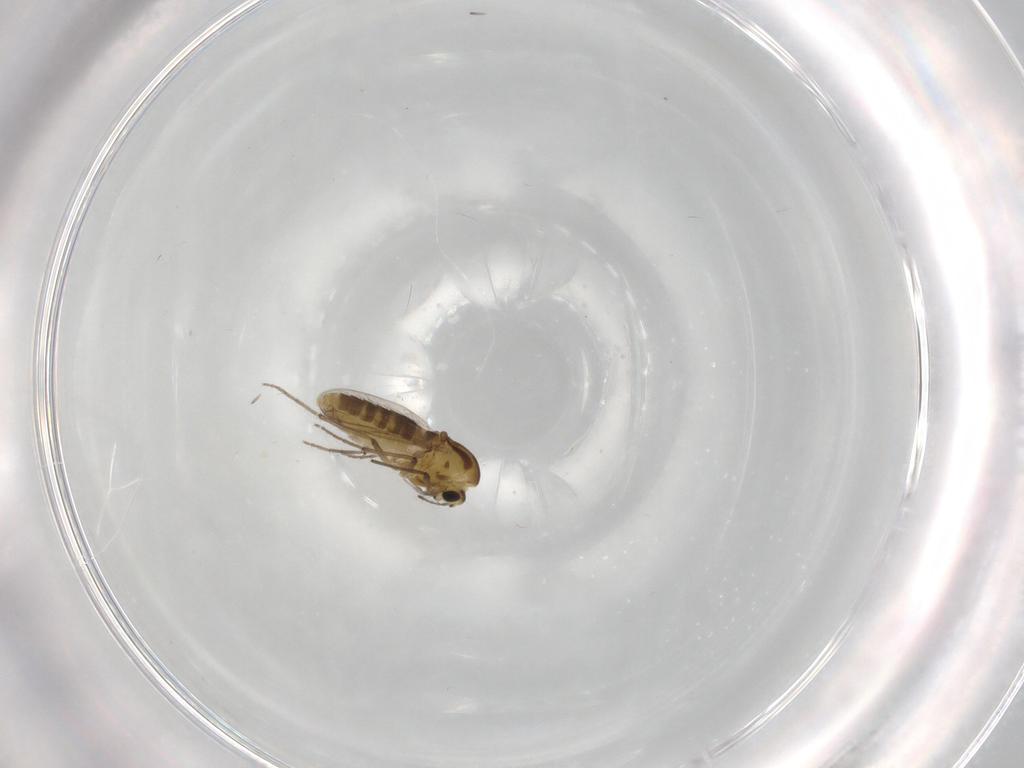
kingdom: Animalia
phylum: Arthropoda
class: Insecta
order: Diptera
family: Chironomidae
